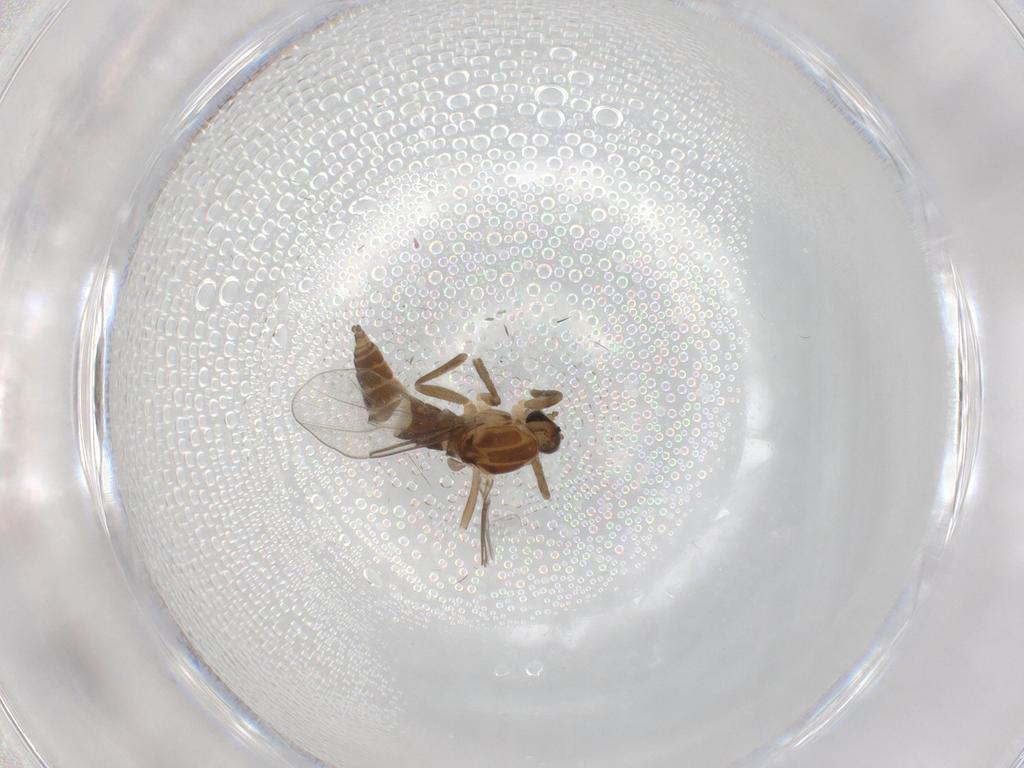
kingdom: Animalia
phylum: Arthropoda
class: Insecta
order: Diptera
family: Cecidomyiidae
